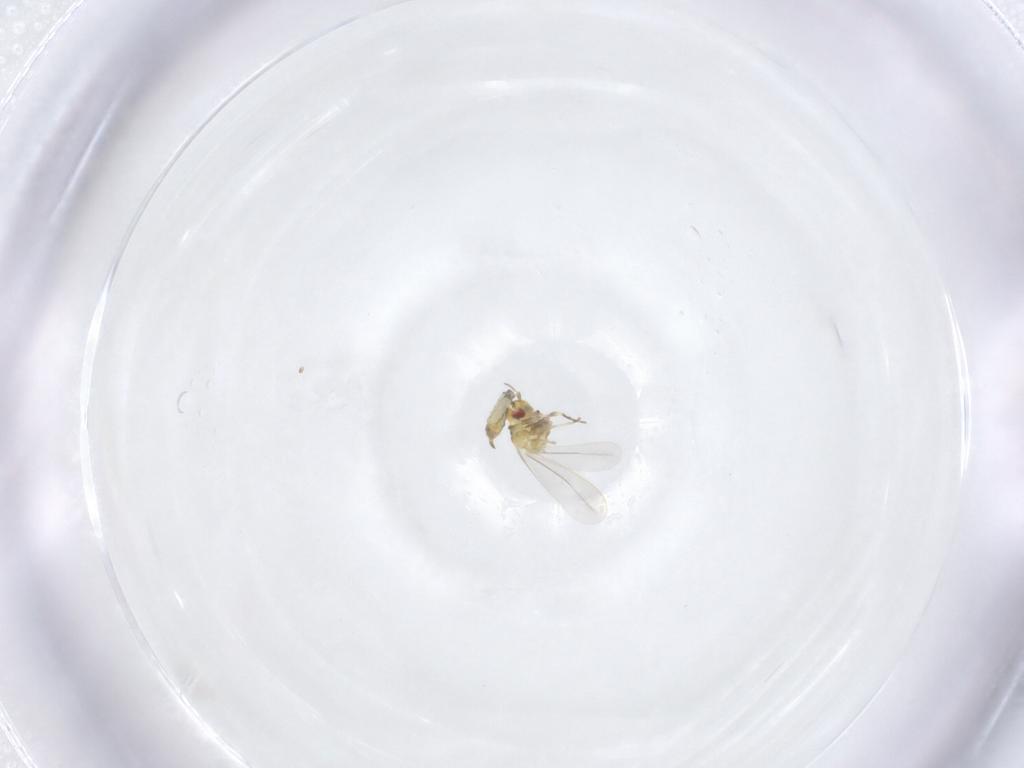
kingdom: Animalia
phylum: Arthropoda
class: Insecta
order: Hemiptera
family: Aleyrodidae
